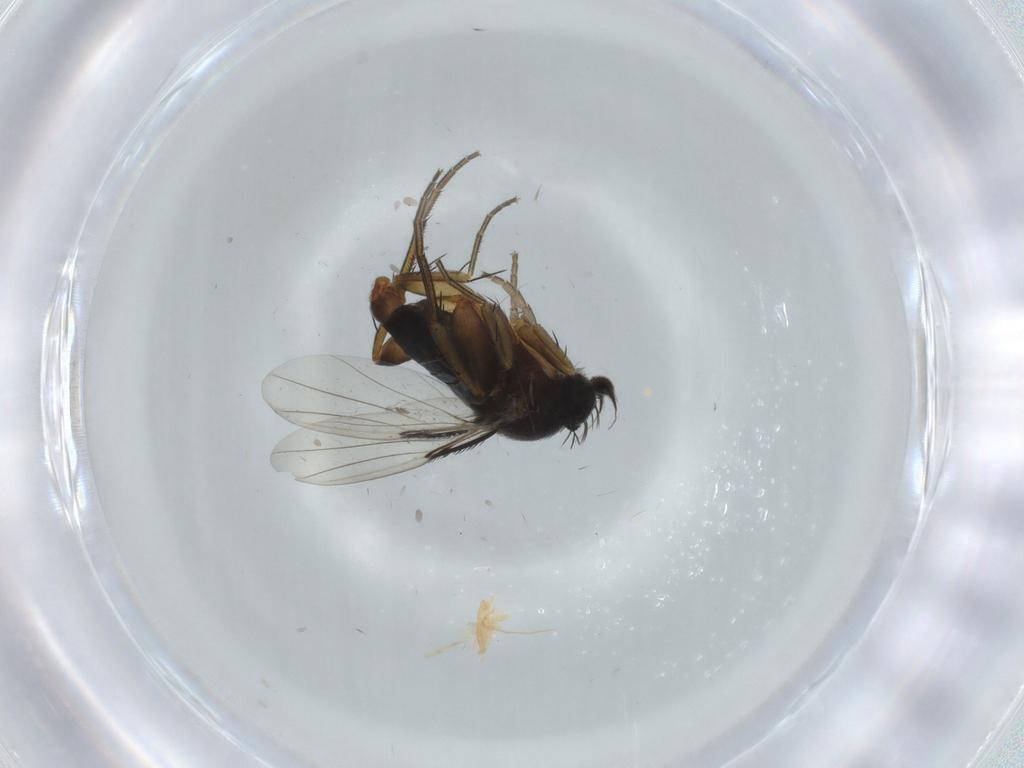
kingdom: Animalia
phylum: Arthropoda
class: Insecta
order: Diptera
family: Phoridae
